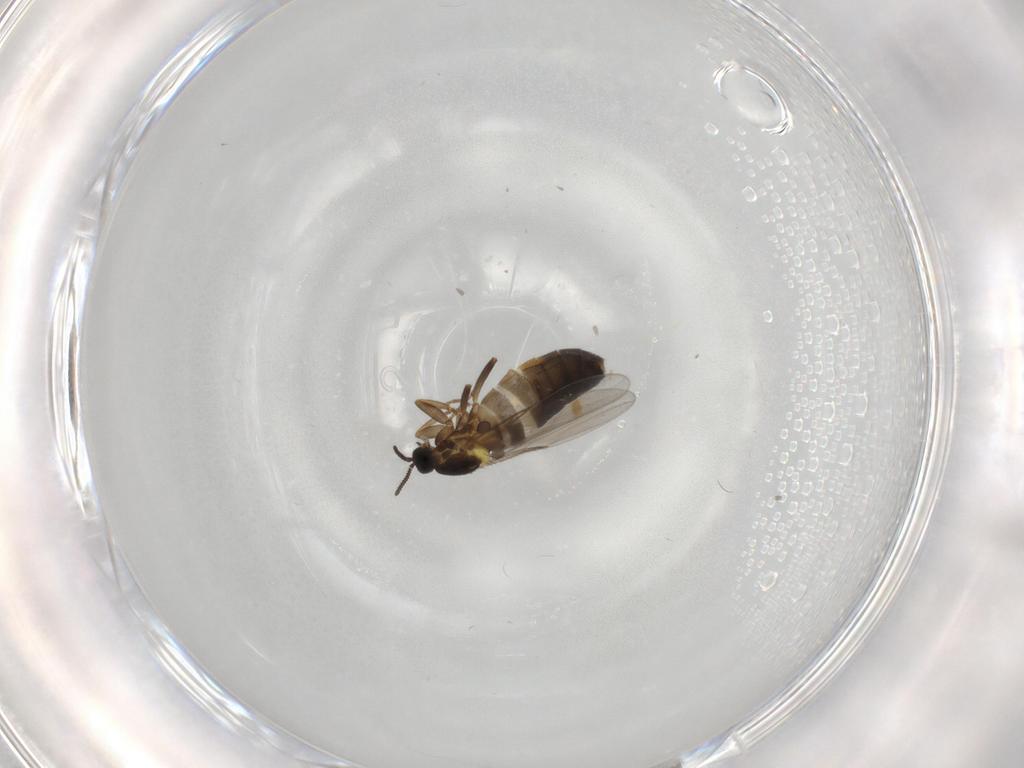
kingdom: Animalia
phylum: Arthropoda
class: Insecta
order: Diptera
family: Scatopsidae
